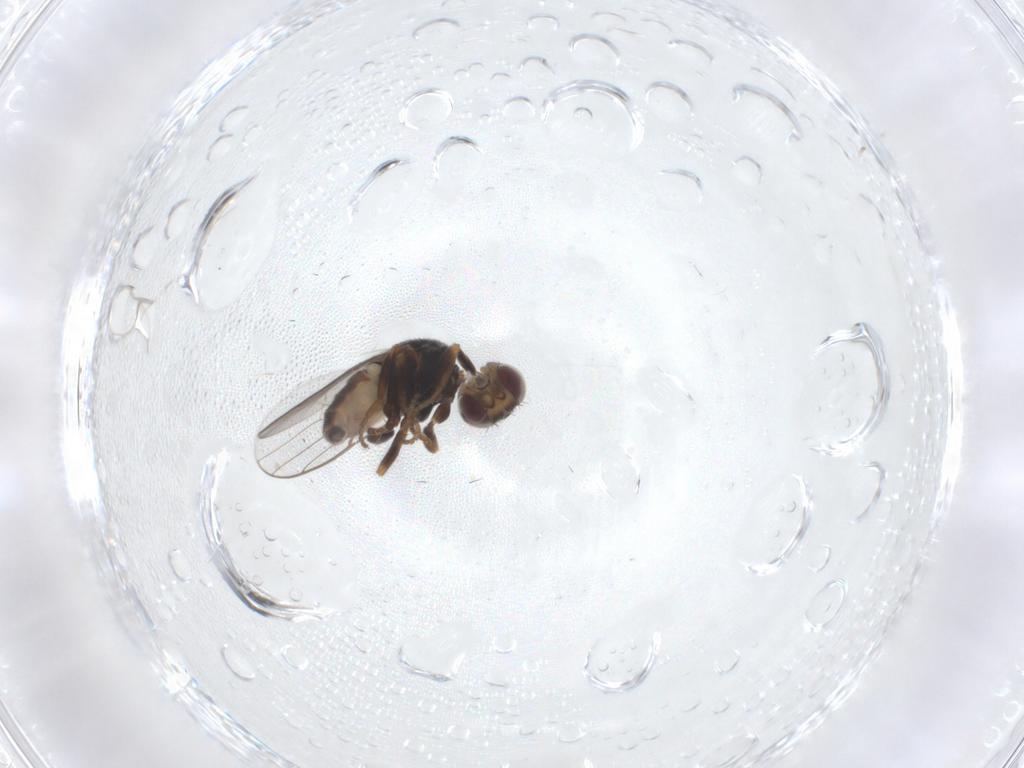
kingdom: Animalia
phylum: Arthropoda
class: Insecta
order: Diptera
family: Chloropidae
